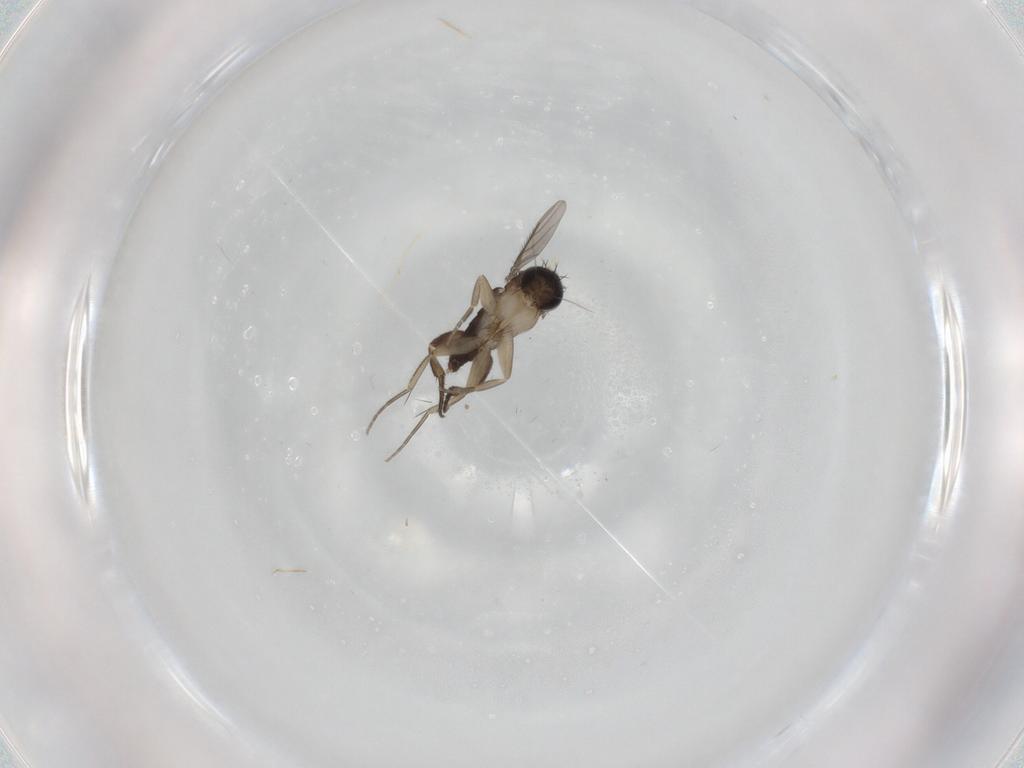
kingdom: Animalia
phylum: Arthropoda
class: Insecta
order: Diptera
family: Phoridae
